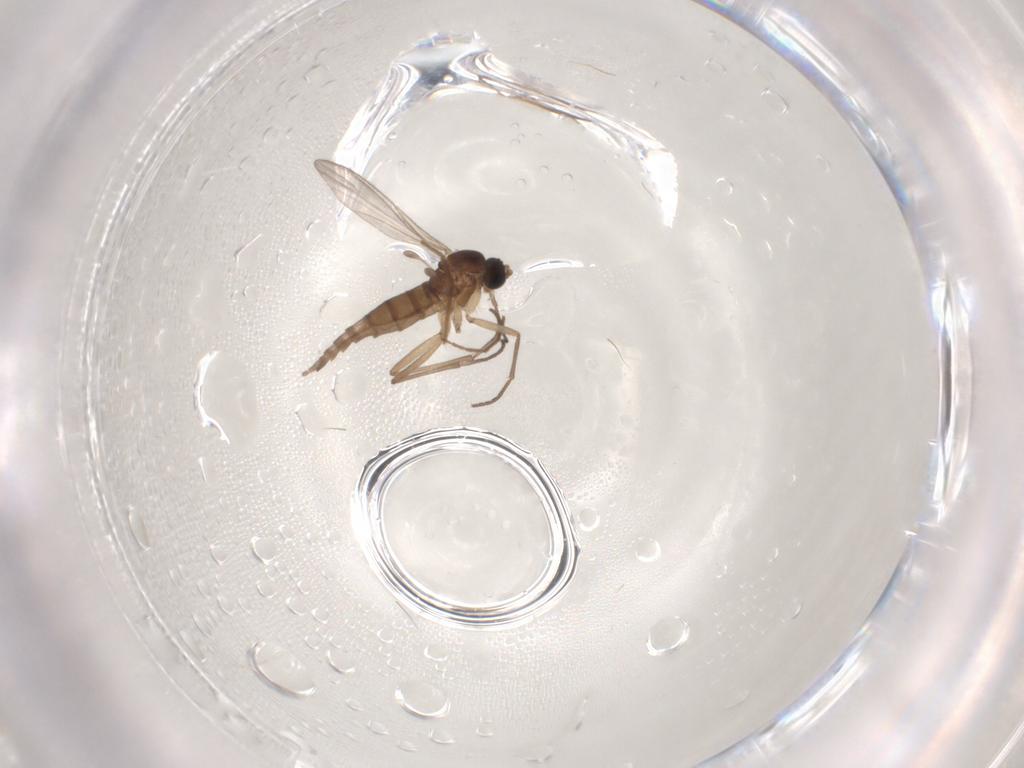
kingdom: Animalia
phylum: Arthropoda
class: Insecta
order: Diptera
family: Sciaridae
